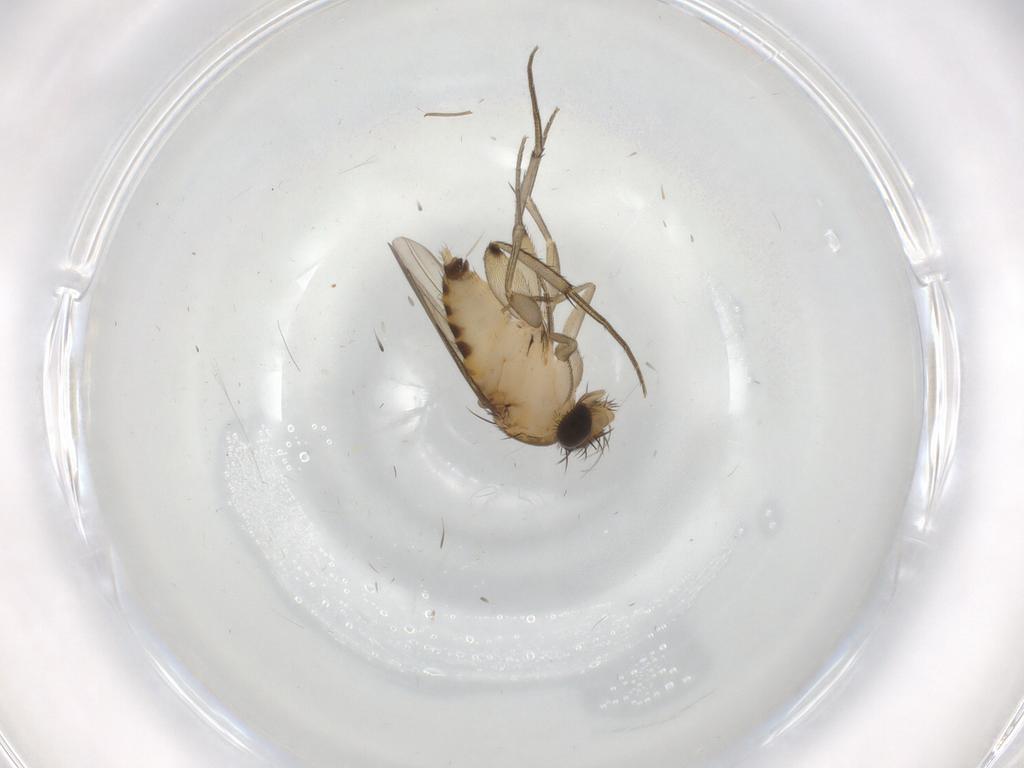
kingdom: Animalia
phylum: Arthropoda
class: Insecta
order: Diptera
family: Phoridae
